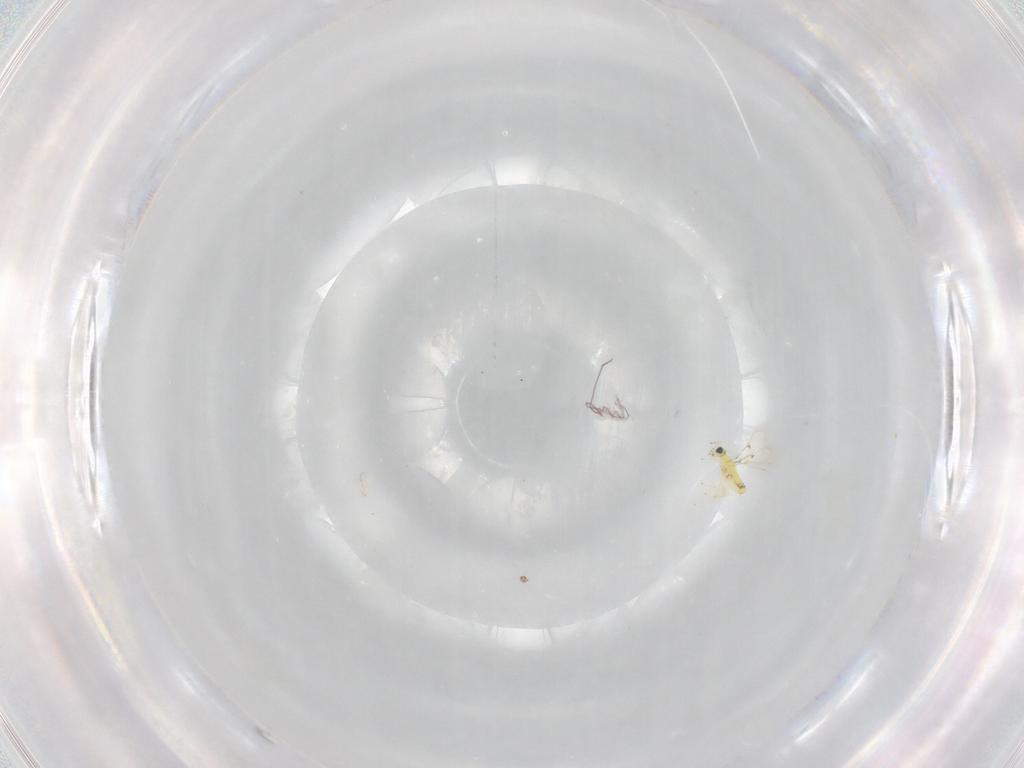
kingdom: Animalia
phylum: Arthropoda
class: Insecta
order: Hymenoptera
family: Trichogrammatidae
